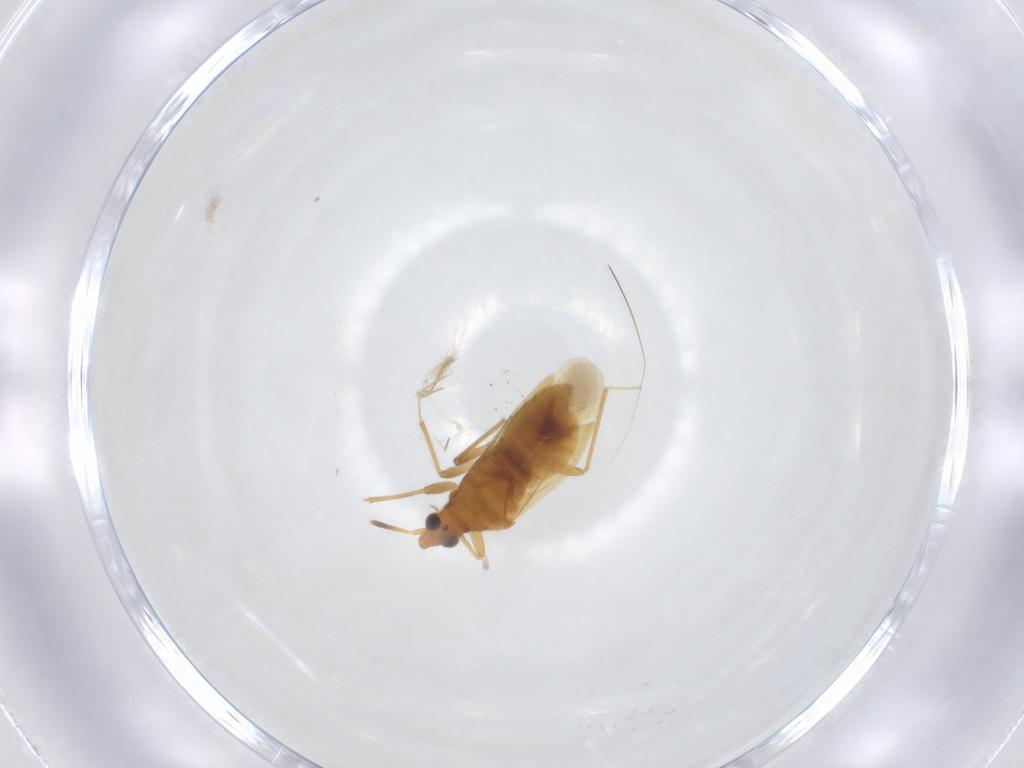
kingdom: Animalia
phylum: Arthropoda
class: Insecta
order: Hemiptera
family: Anthocoridae
